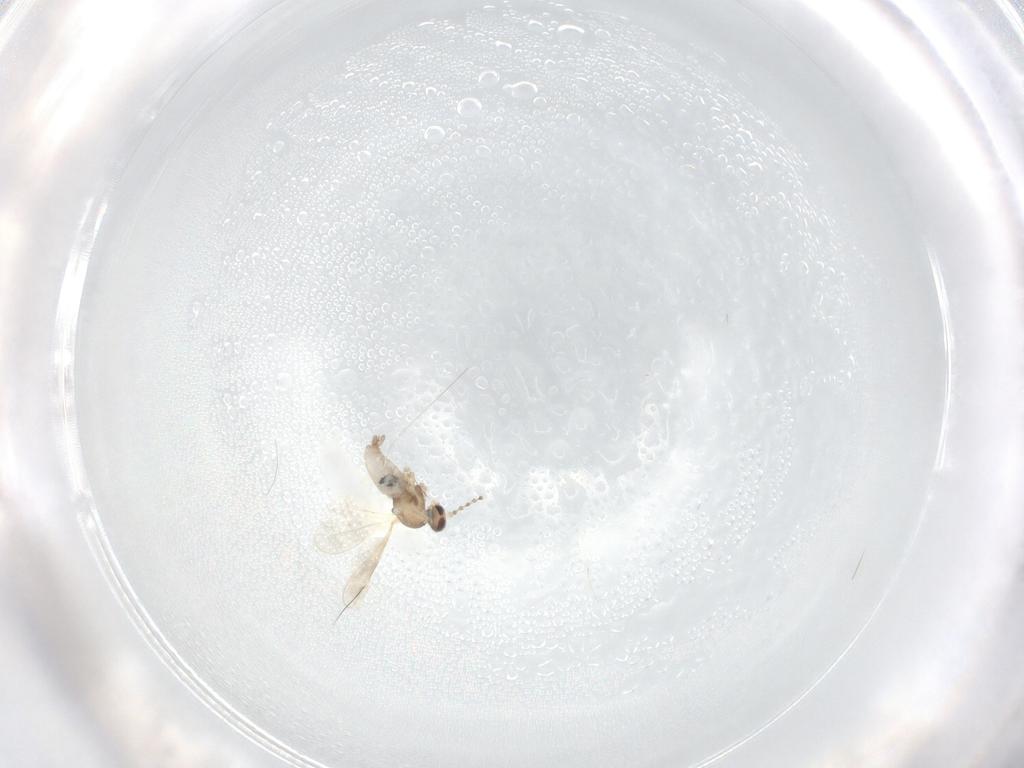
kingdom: Animalia
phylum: Arthropoda
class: Insecta
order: Diptera
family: Cecidomyiidae
